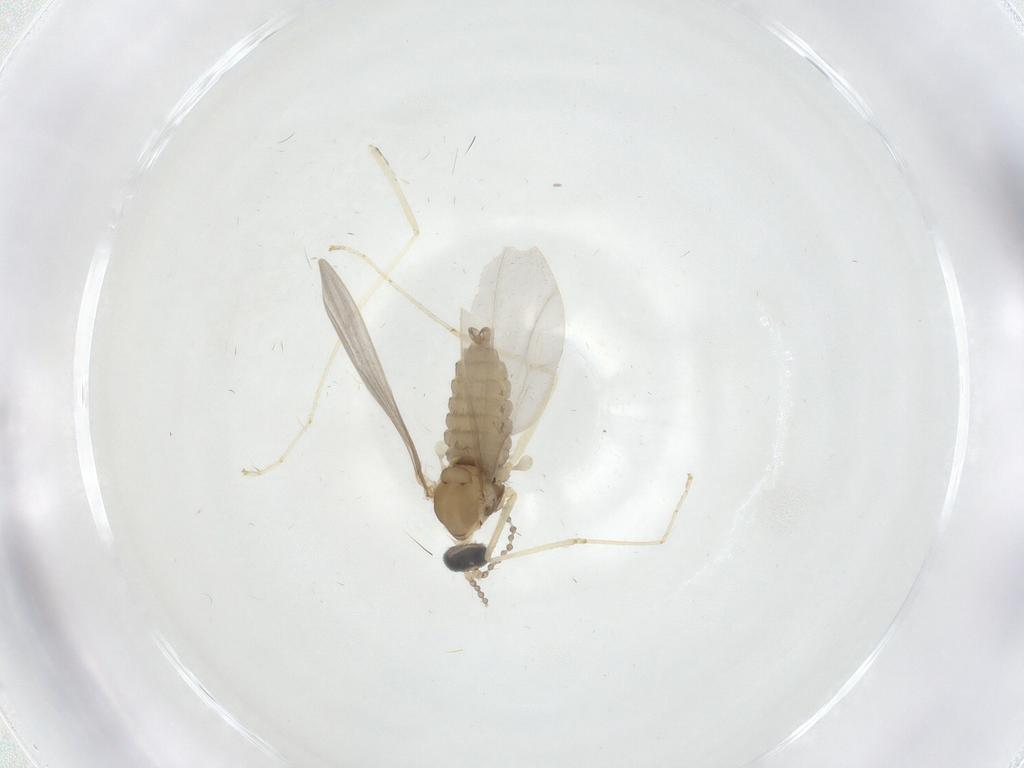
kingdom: Animalia
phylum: Arthropoda
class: Insecta
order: Diptera
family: Cecidomyiidae
